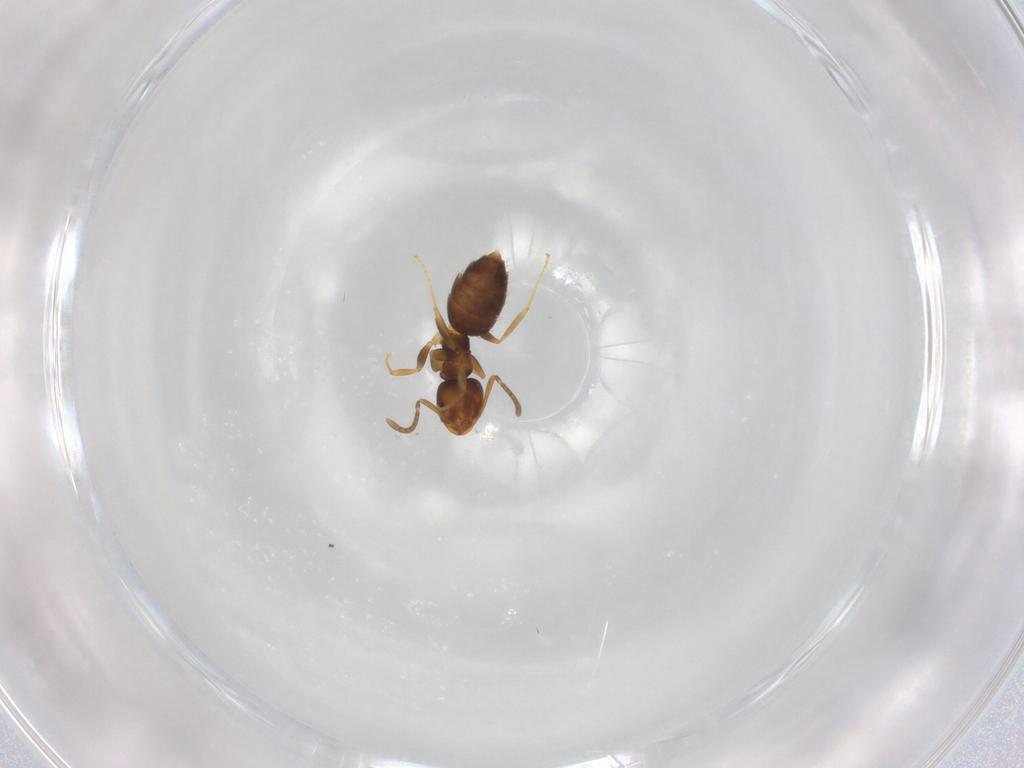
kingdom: Animalia
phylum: Arthropoda
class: Insecta
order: Hymenoptera
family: Formicidae
